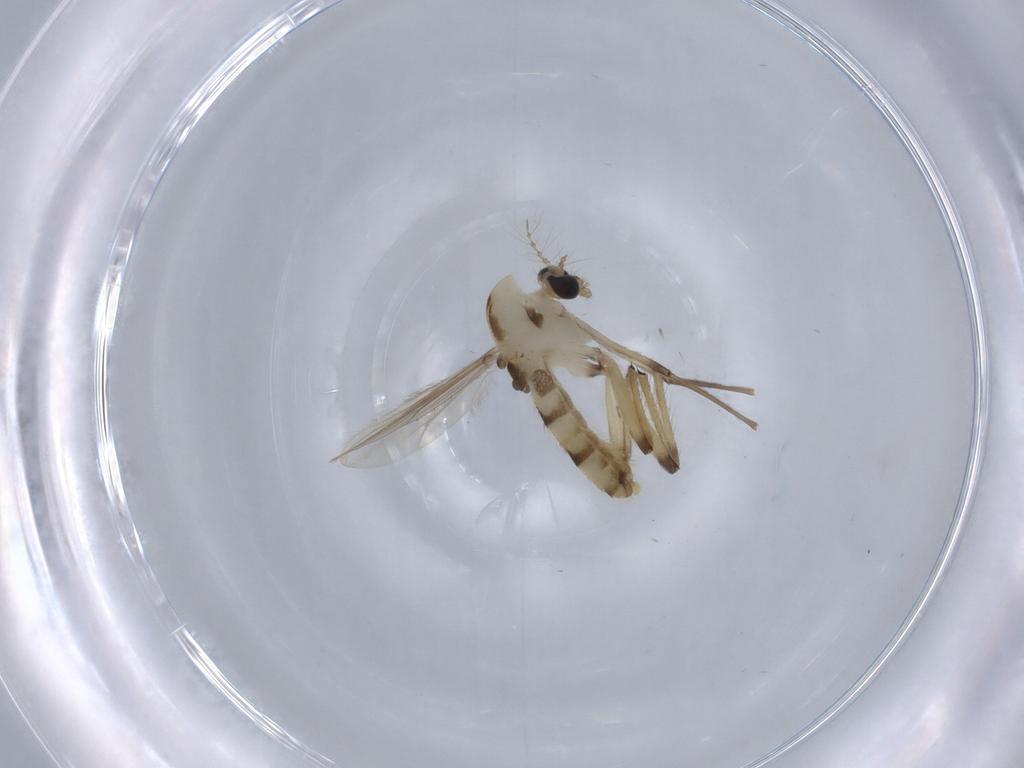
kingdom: Animalia
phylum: Arthropoda
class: Insecta
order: Diptera
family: Chironomidae
